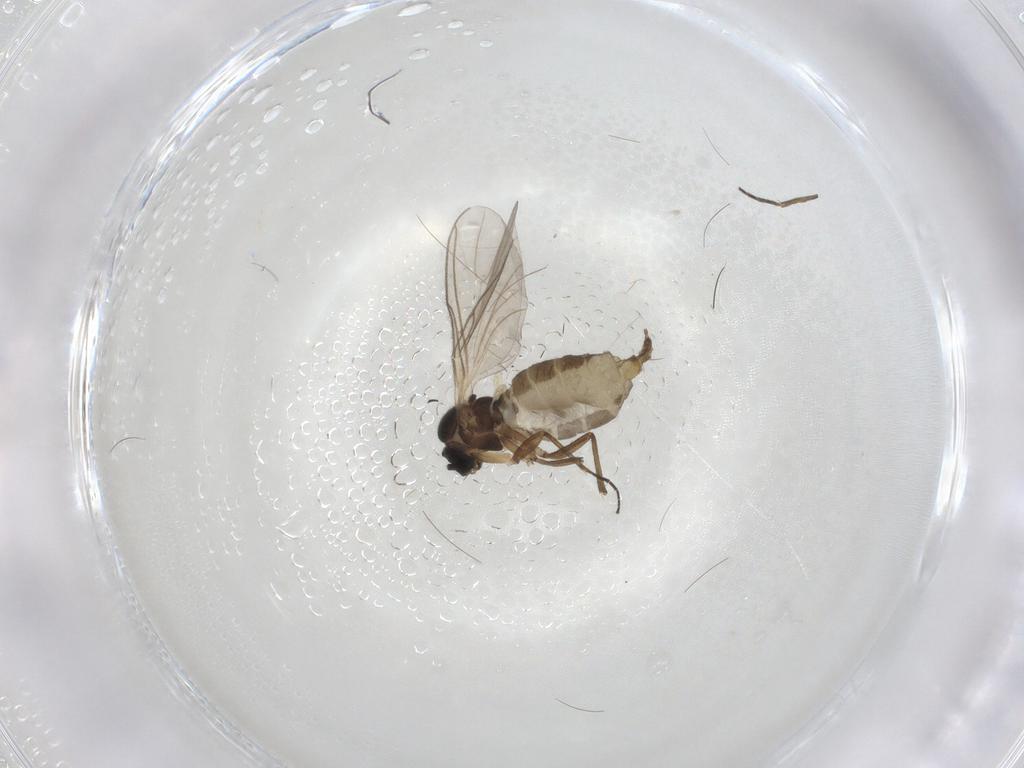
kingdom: Animalia
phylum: Arthropoda
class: Insecta
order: Diptera
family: Sciaridae
